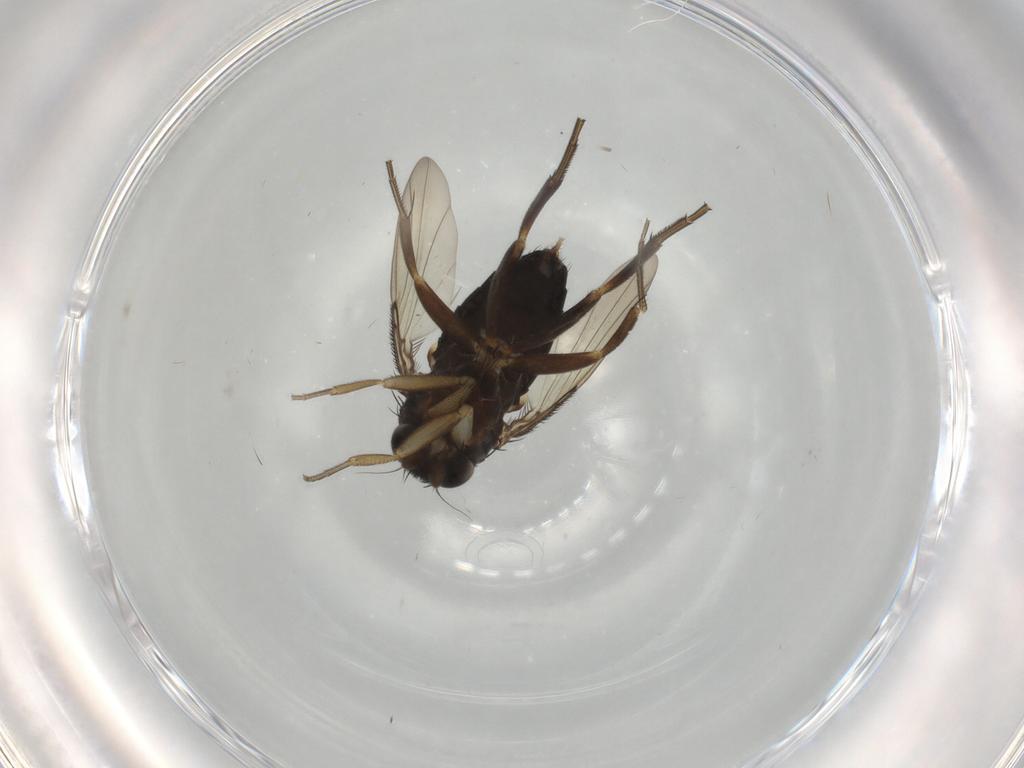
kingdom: Animalia
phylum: Arthropoda
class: Insecta
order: Diptera
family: Phoridae
